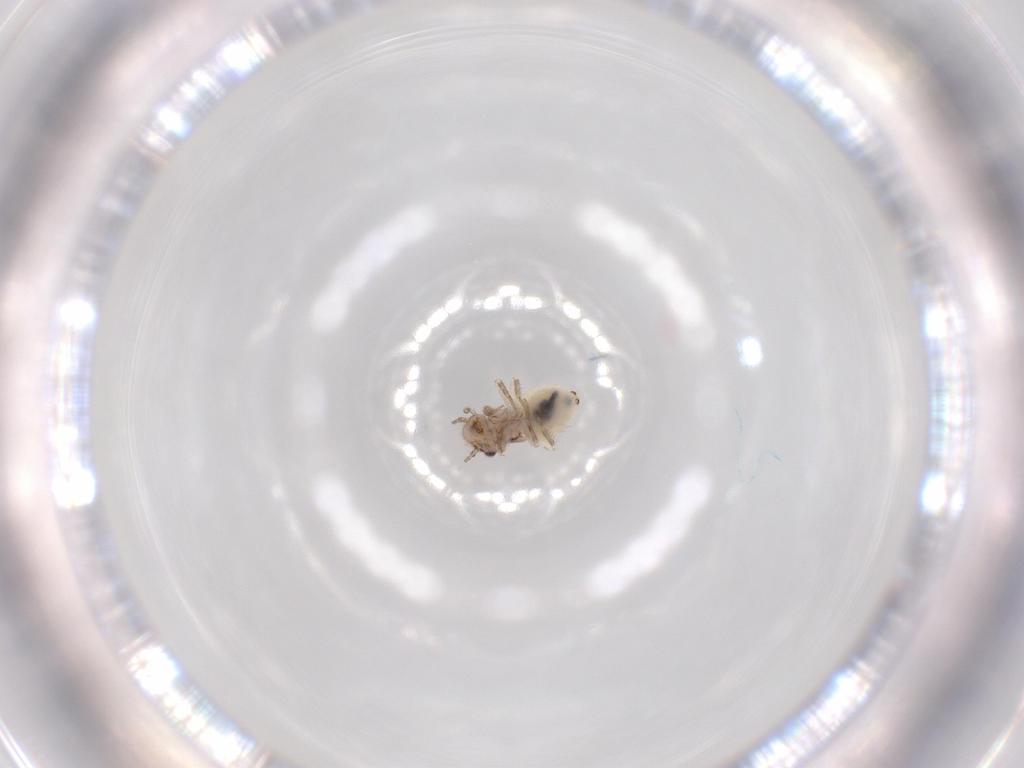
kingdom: Animalia
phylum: Arthropoda
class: Insecta
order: Psocodea
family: Lepidopsocidae
